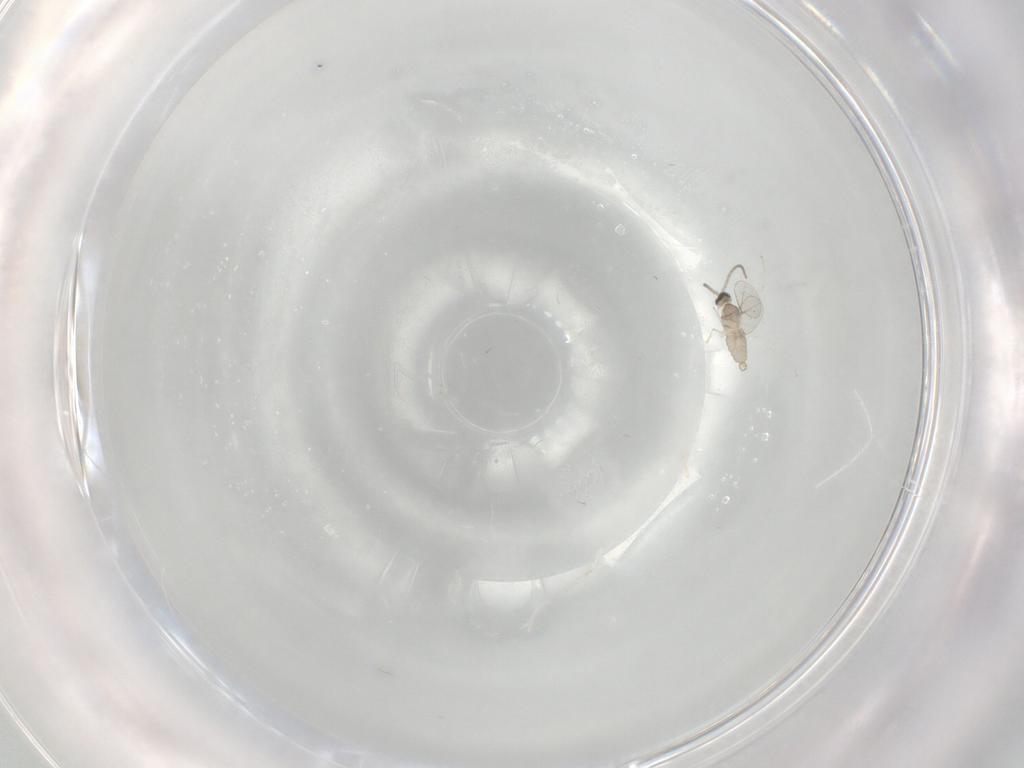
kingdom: Animalia
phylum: Arthropoda
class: Insecta
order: Diptera
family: Cecidomyiidae
